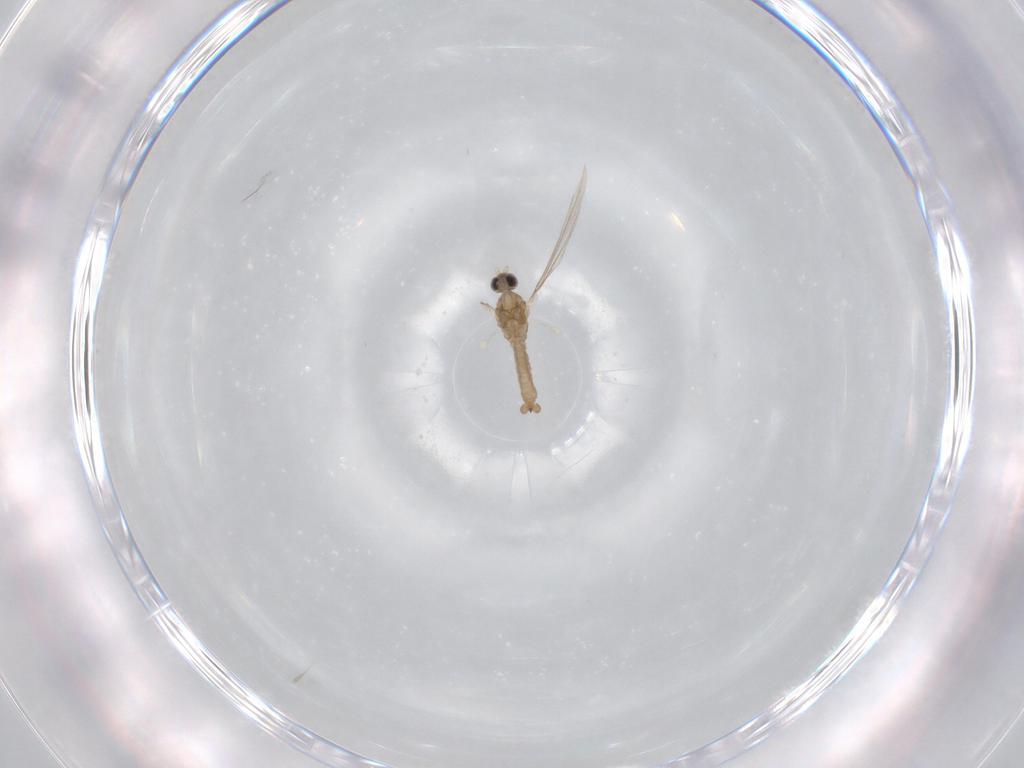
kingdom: Animalia
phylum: Arthropoda
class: Insecta
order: Diptera
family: Cecidomyiidae
